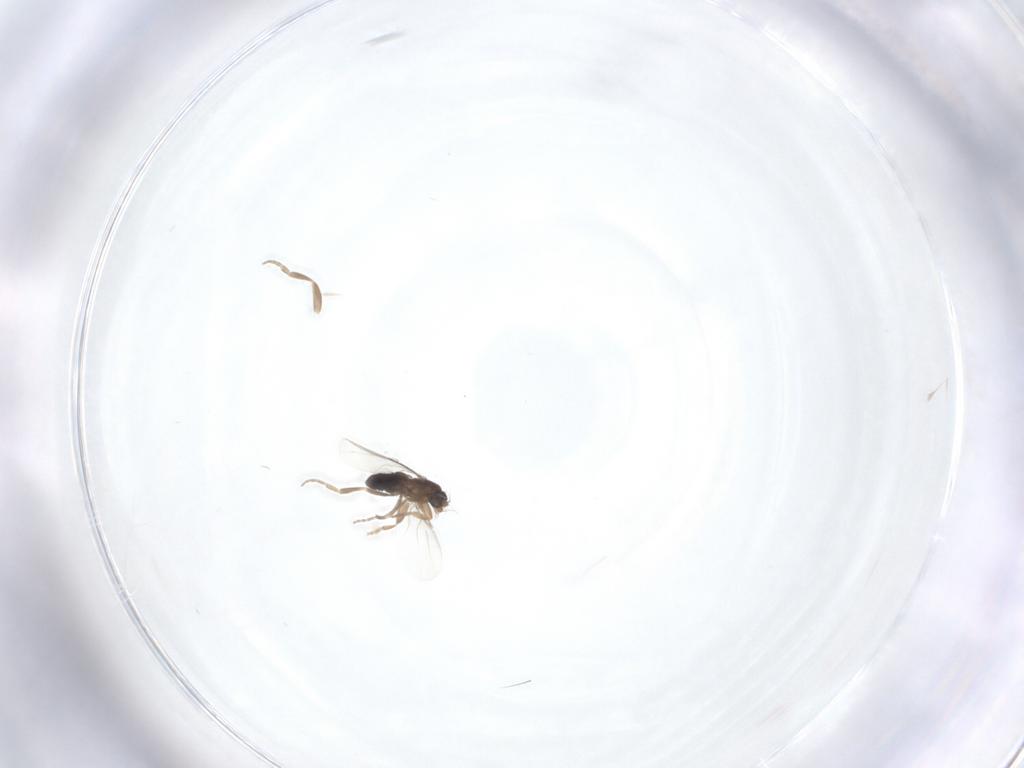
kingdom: Animalia
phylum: Arthropoda
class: Insecta
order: Diptera
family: Phoridae
